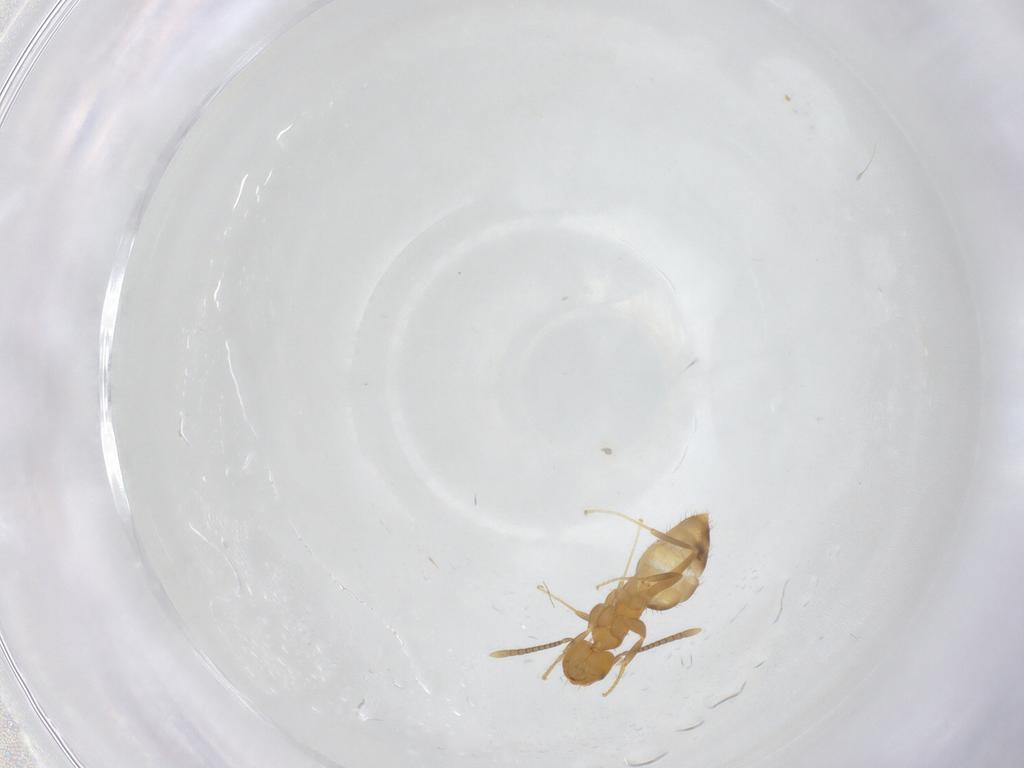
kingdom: Animalia
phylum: Arthropoda
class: Insecta
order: Hymenoptera
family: Formicidae
